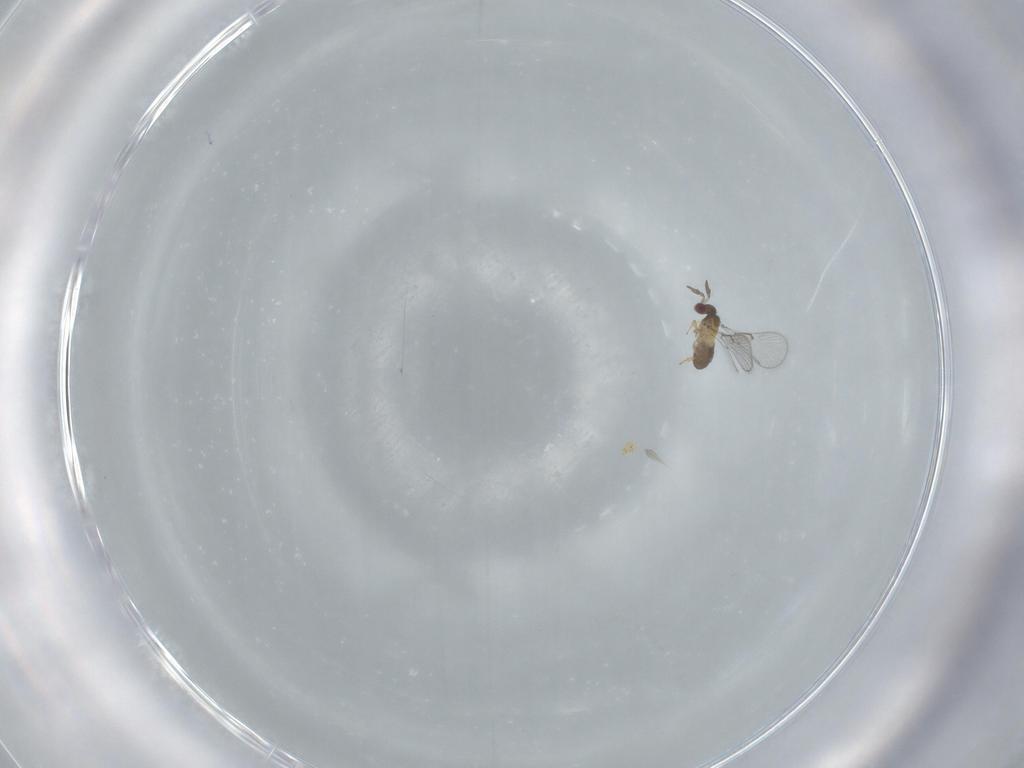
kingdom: Animalia
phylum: Arthropoda
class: Insecta
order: Hymenoptera
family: Trichogrammatidae
